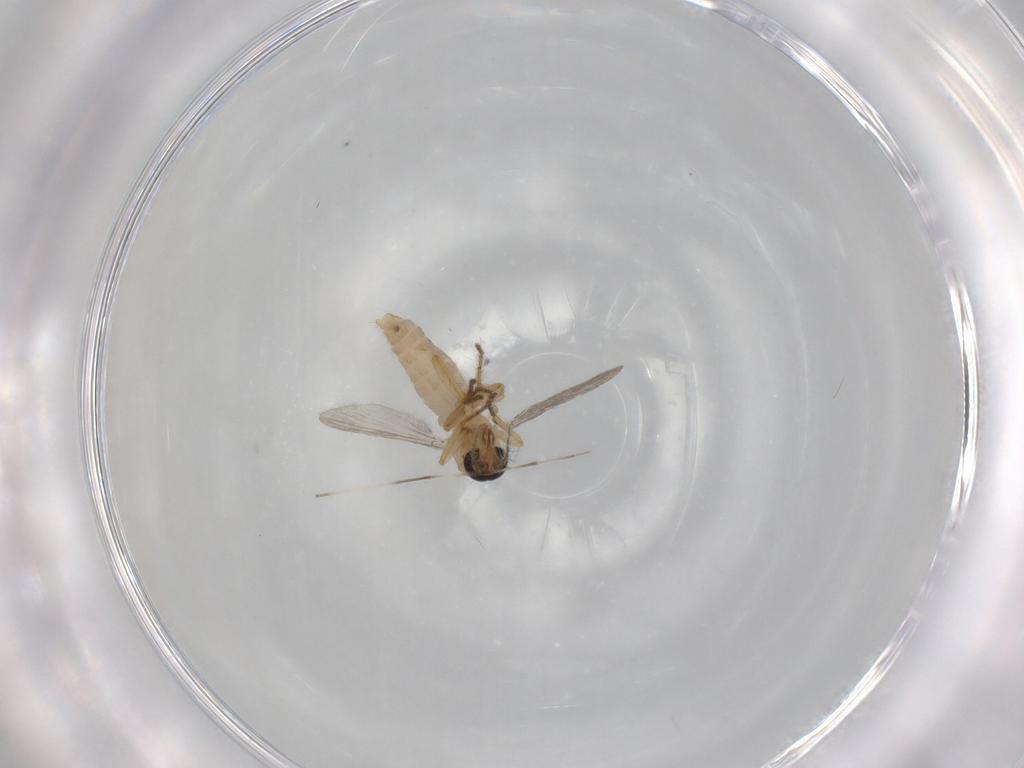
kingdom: Animalia
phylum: Arthropoda
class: Insecta
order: Diptera
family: Ceratopogonidae
